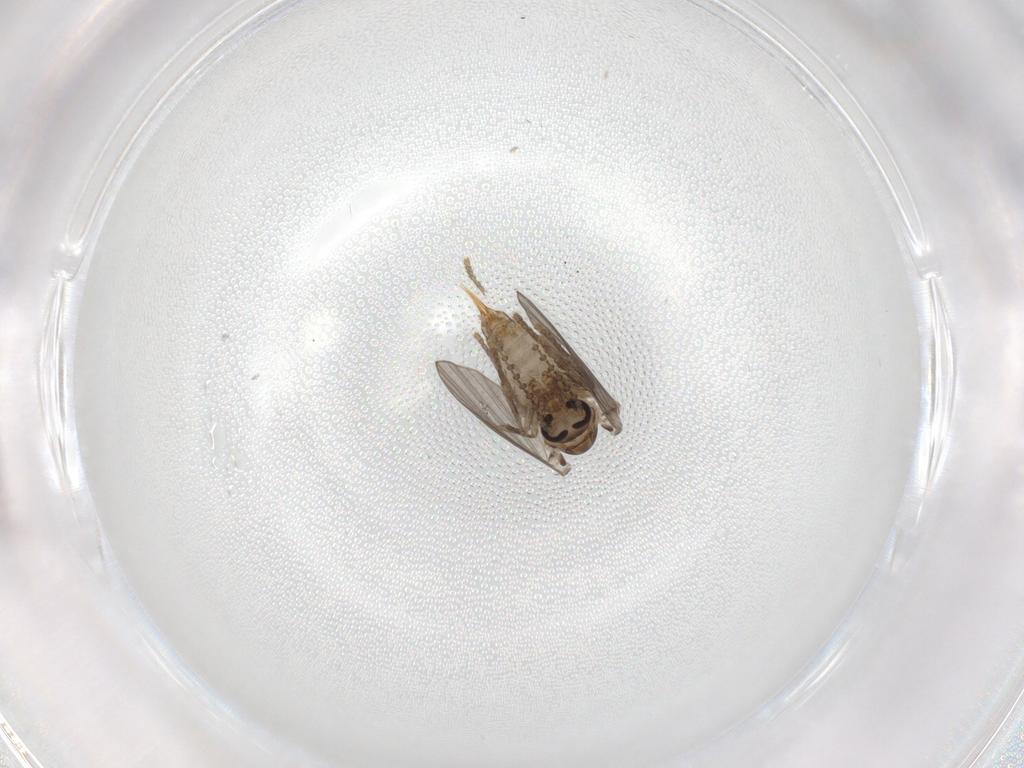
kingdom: Animalia
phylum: Arthropoda
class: Insecta
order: Diptera
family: Psychodidae
